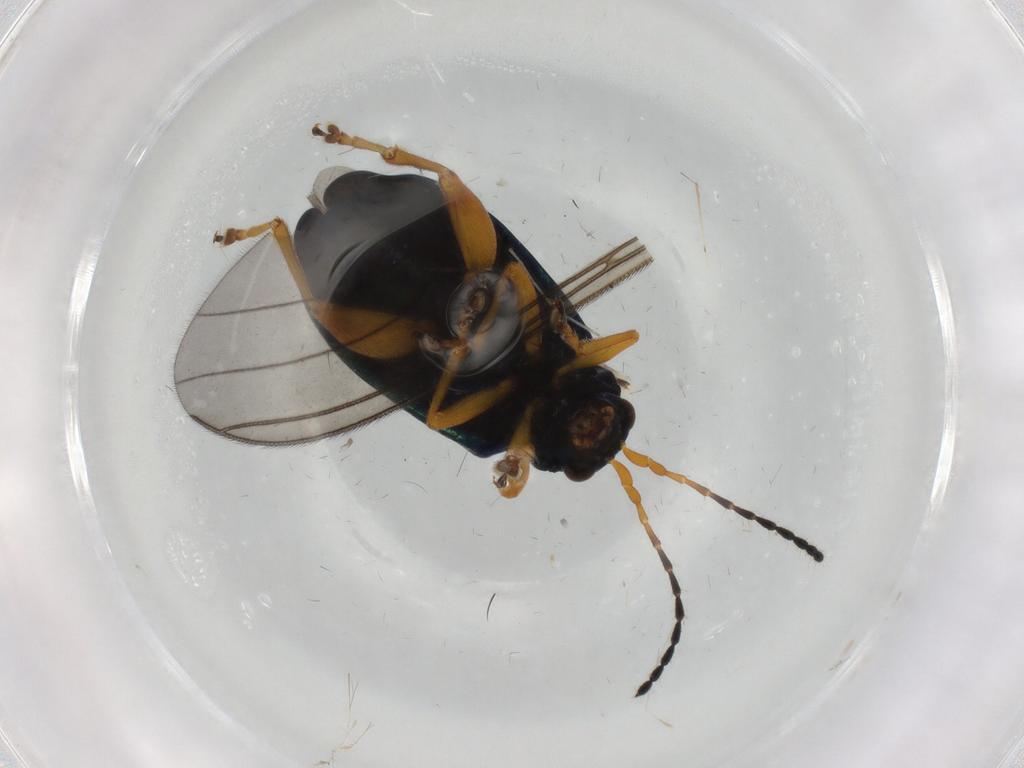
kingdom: Animalia
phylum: Arthropoda
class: Insecta
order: Coleoptera
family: Chrysomelidae
